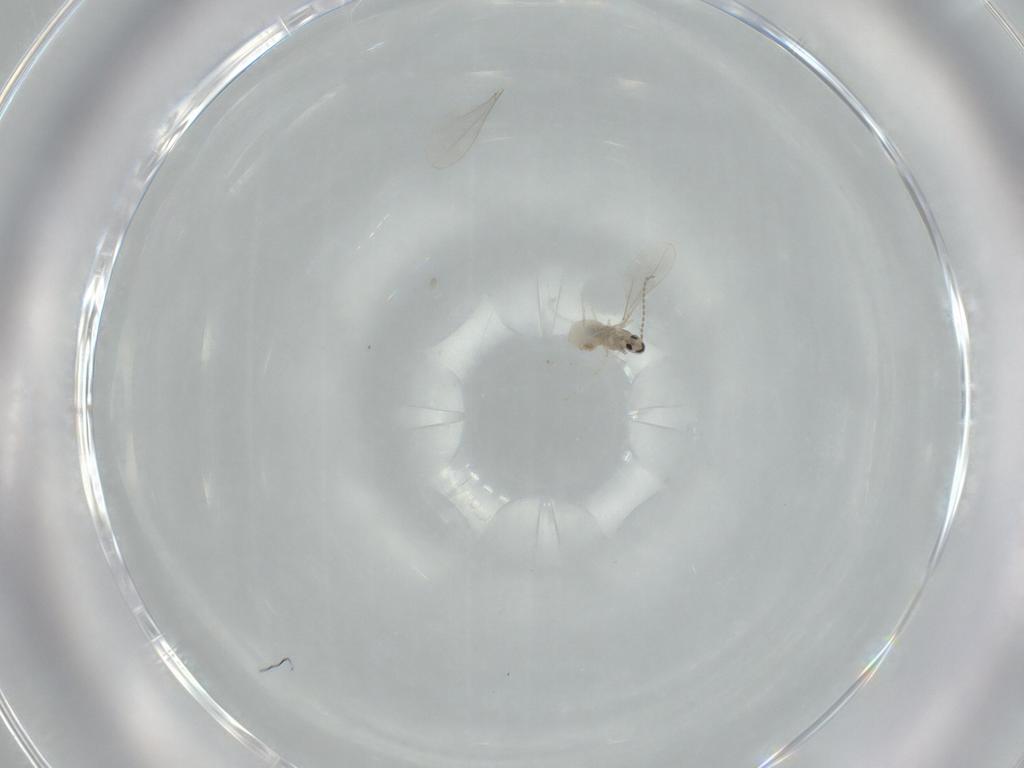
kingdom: Animalia
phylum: Arthropoda
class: Insecta
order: Diptera
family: Cecidomyiidae
